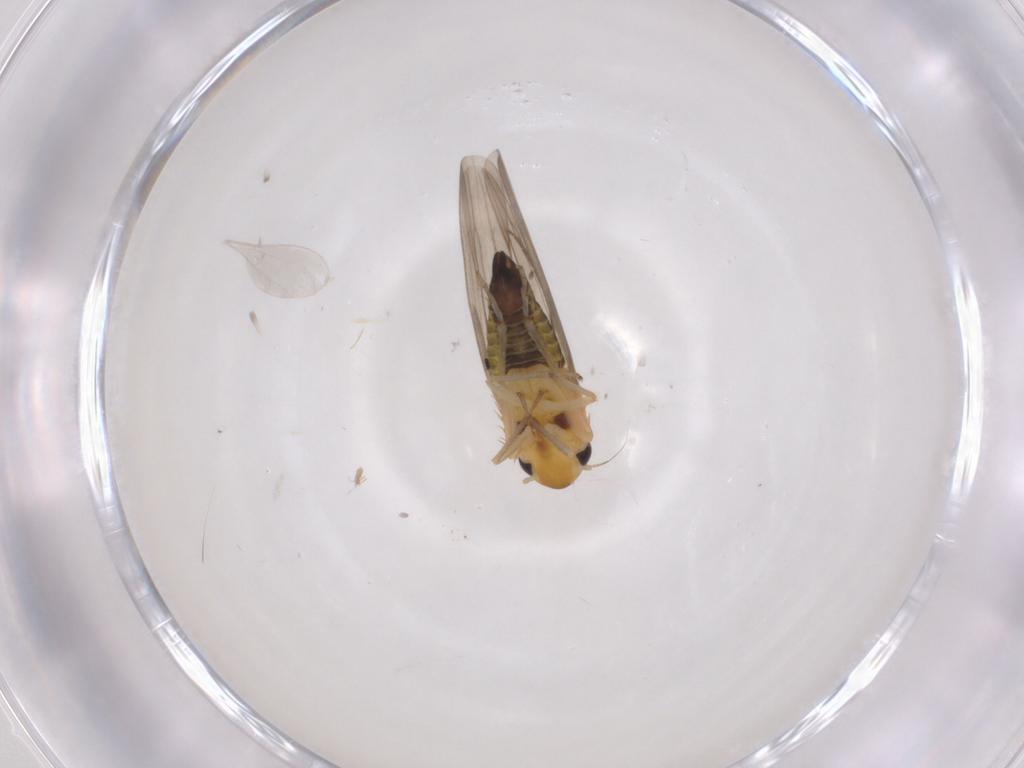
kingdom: Animalia
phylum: Arthropoda
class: Insecta
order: Hemiptera
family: Cicadellidae
